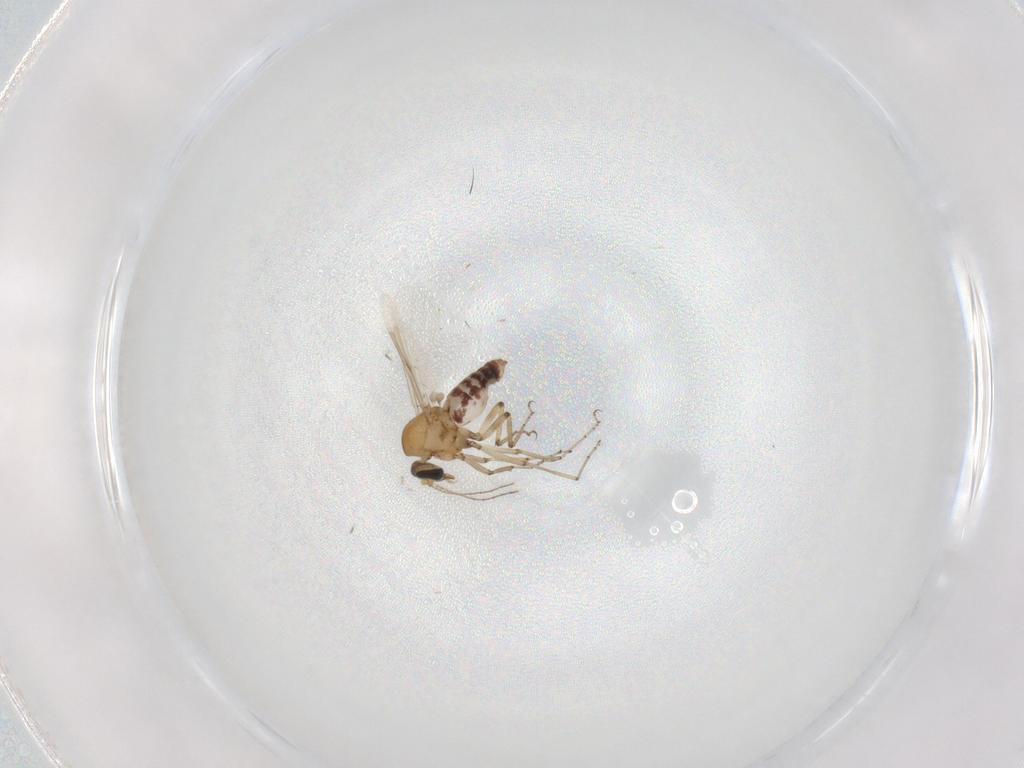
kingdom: Animalia
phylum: Arthropoda
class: Insecta
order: Diptera
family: Ceratopogonidae
